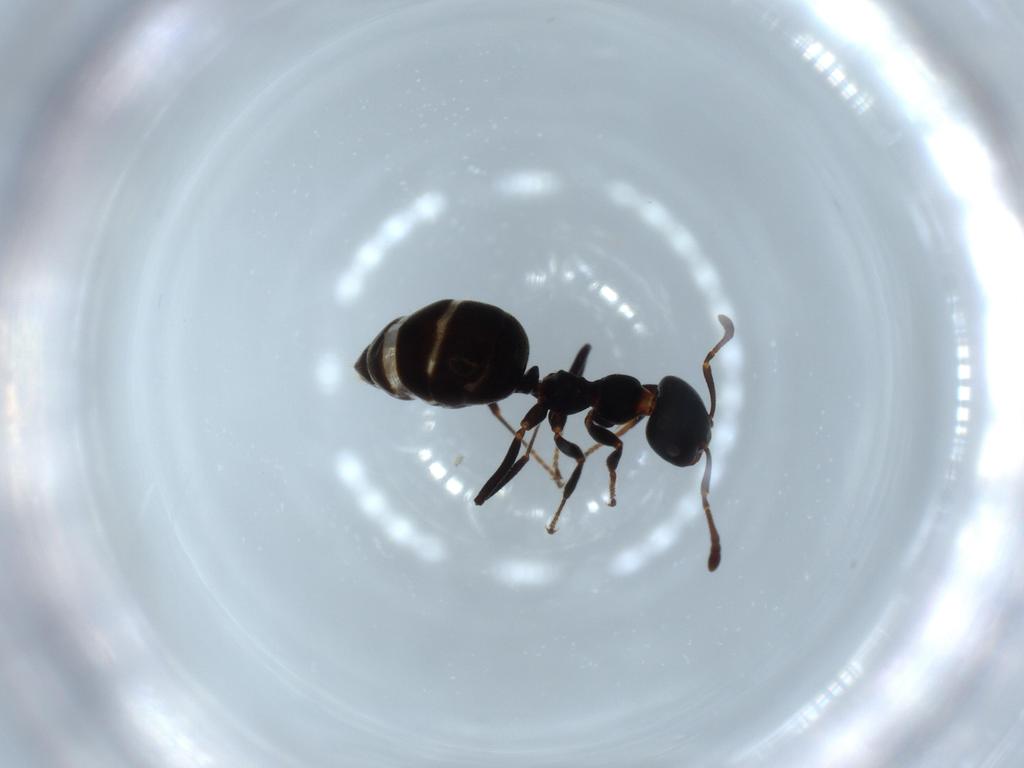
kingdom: Animalia
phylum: Arthropoda
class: Insecta
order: Hymenoptera
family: Formicidae
